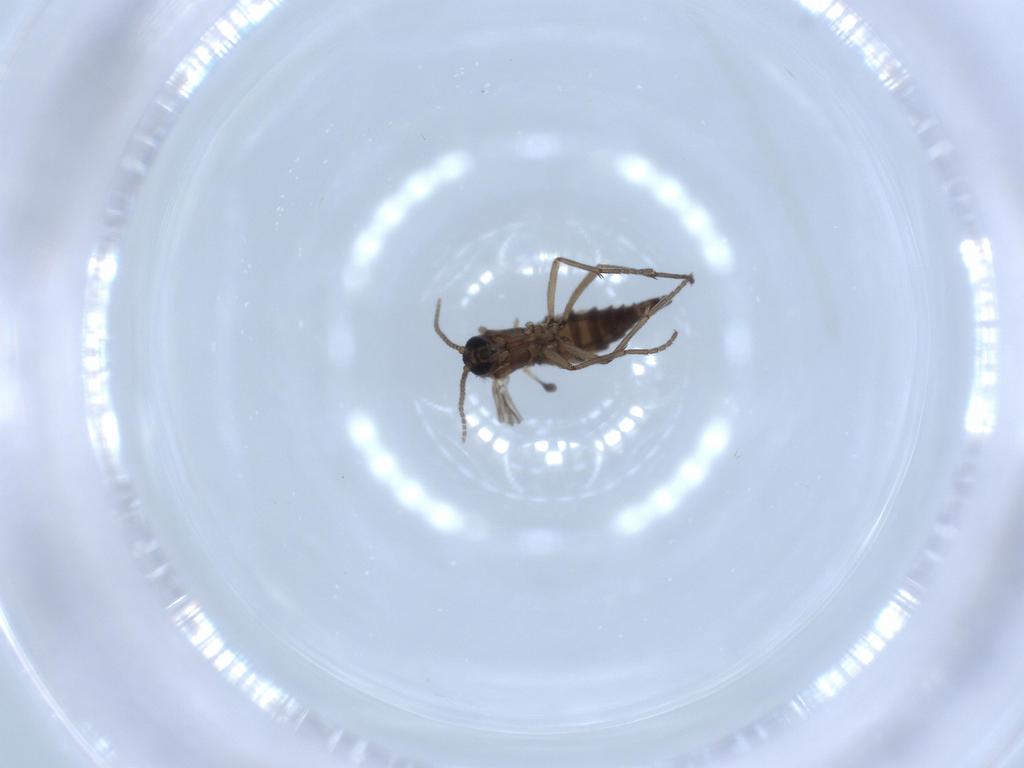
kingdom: Animalia
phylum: Arthropoda
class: Insecta
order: Diptera
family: Sciaridae
